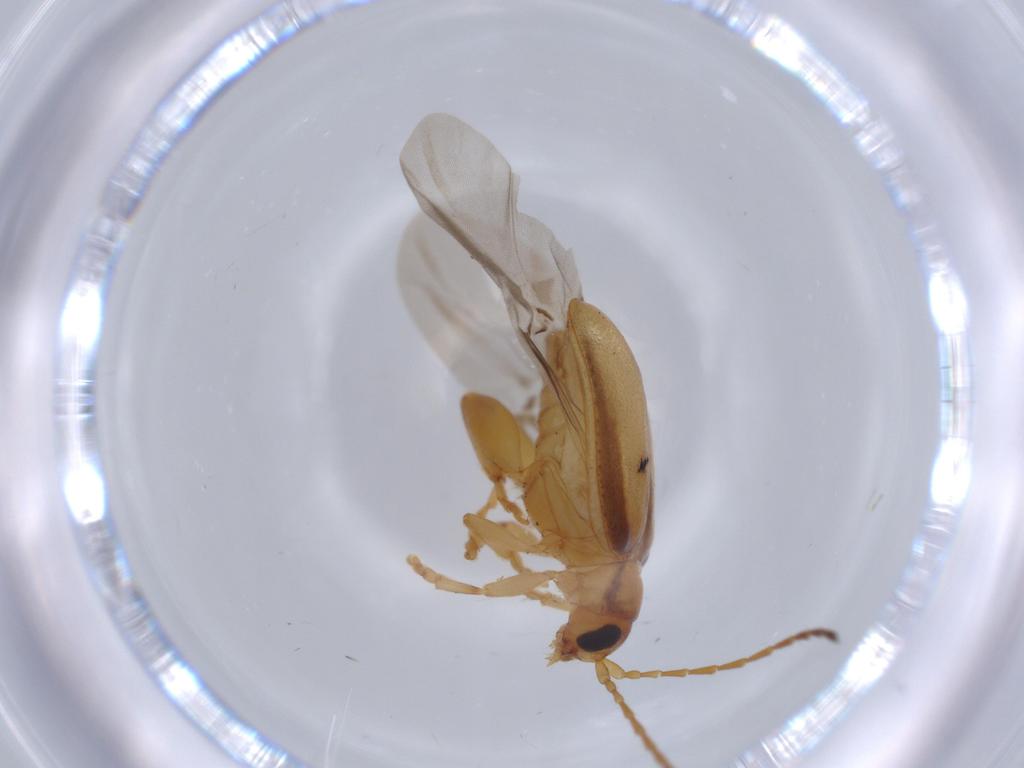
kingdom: Animalia
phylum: Arthropoda
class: Insecta
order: Coleoptera
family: Chrysomelidae
